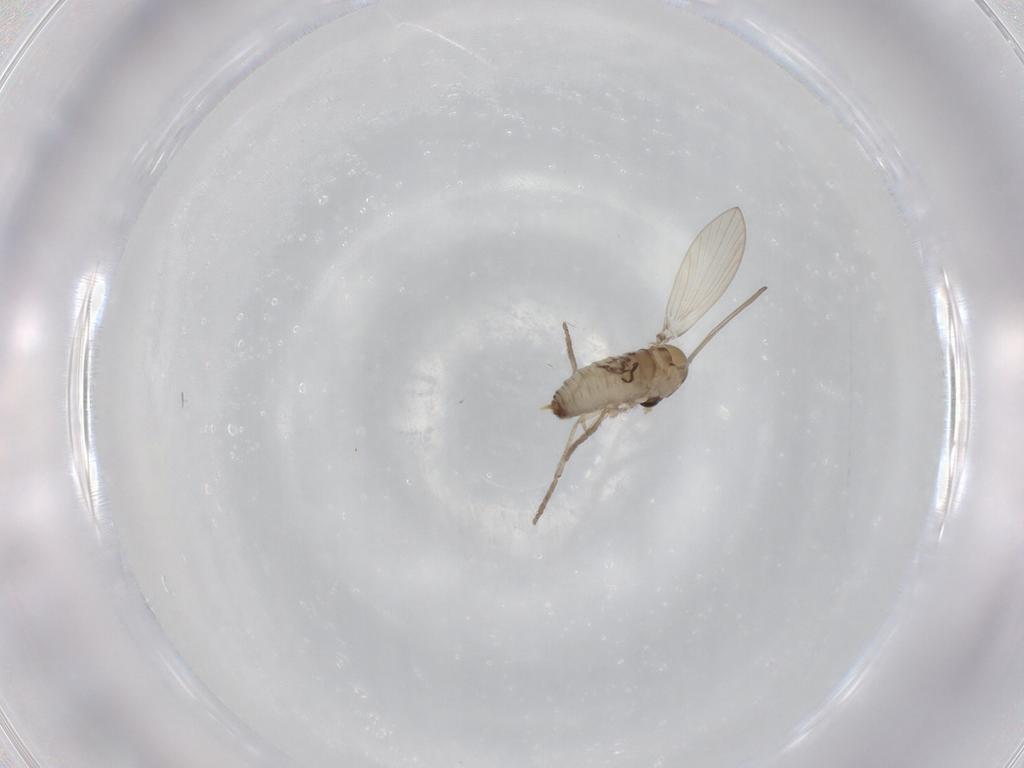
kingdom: Animalia
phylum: Arthropoda
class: Insecta
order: Diptera
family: Psychodidae
